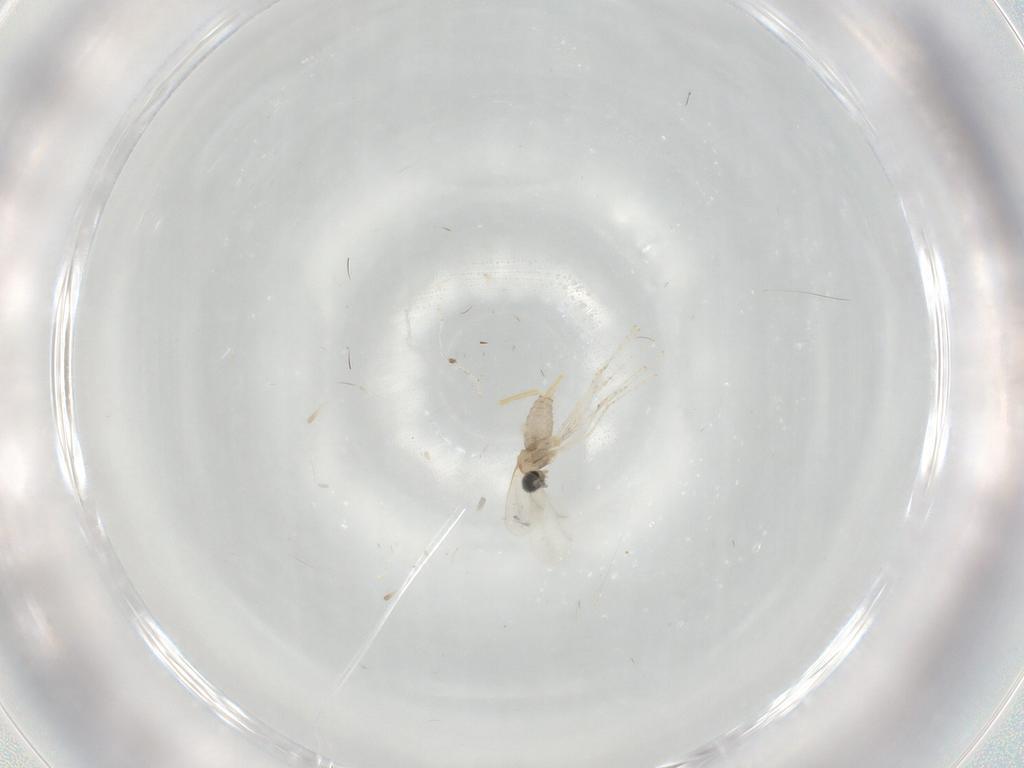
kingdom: Animalia
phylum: Arthropoda
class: Insecta
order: Diptera
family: Cecidomyiidae
